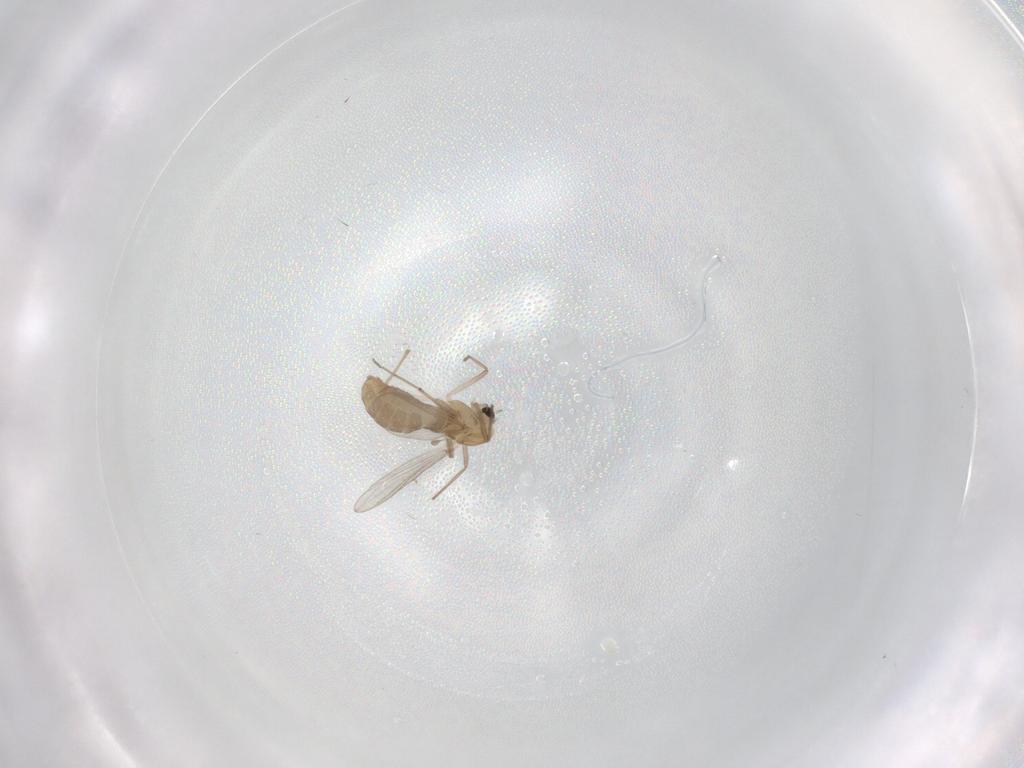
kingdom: Animalia
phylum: Arthropoda
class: Insecta
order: Diptera
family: Chironomidae
